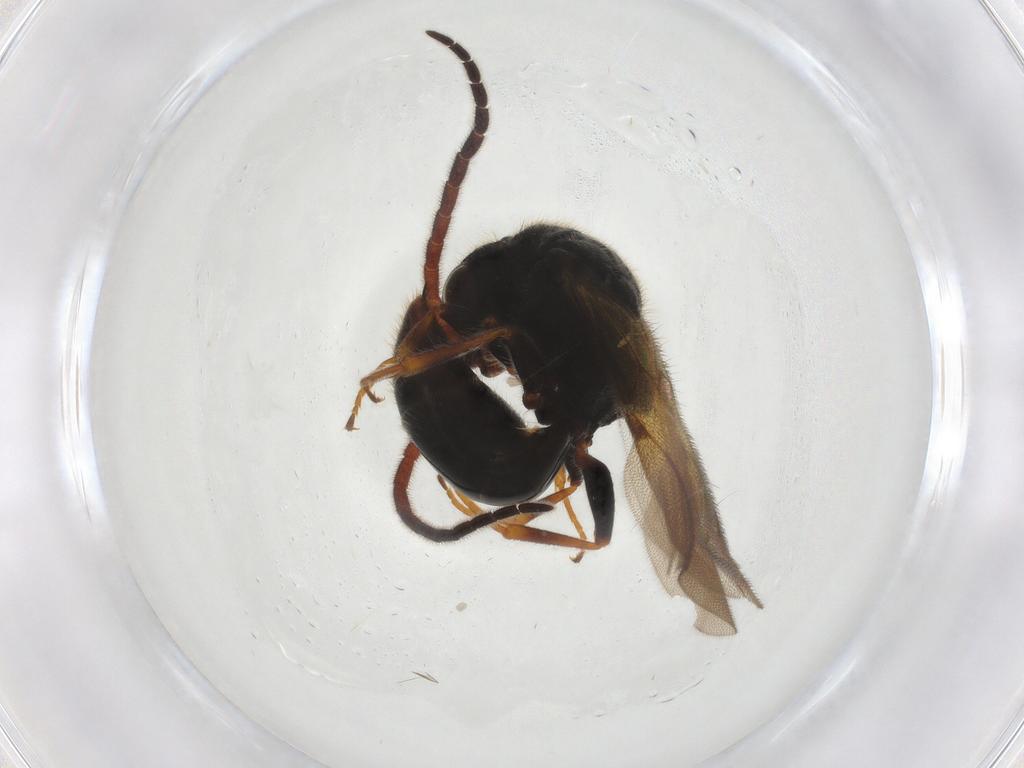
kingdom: Animalia
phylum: Arthropoda
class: Insecta
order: Hymenoptera
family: Bethylidae
